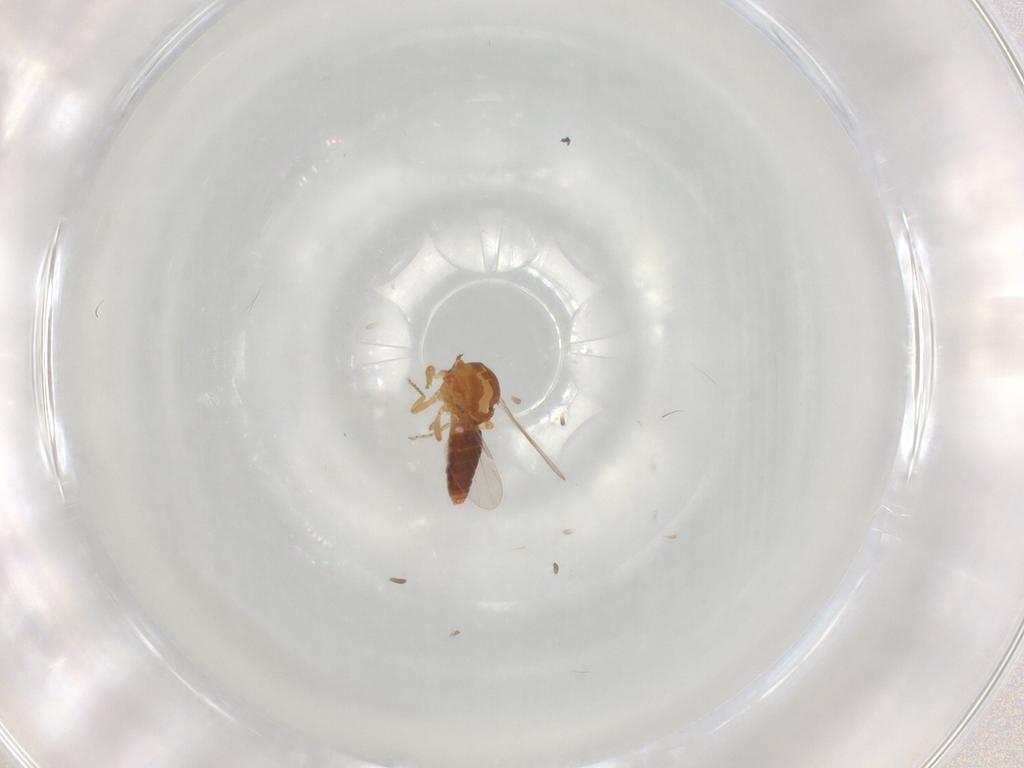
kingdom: Animalia
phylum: Arthropoda
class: Insecta
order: Diptera
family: Ceratopogonidae
